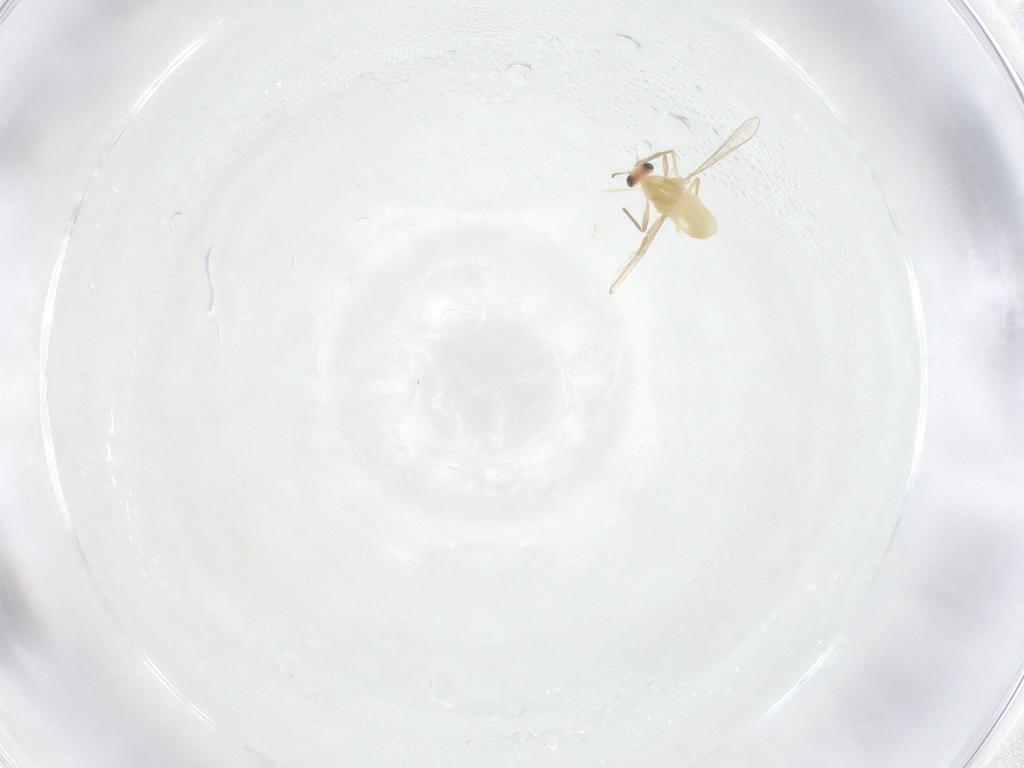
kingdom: Animalia
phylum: Arthropoda
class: Insecta
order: Diptera
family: Chironomidae
